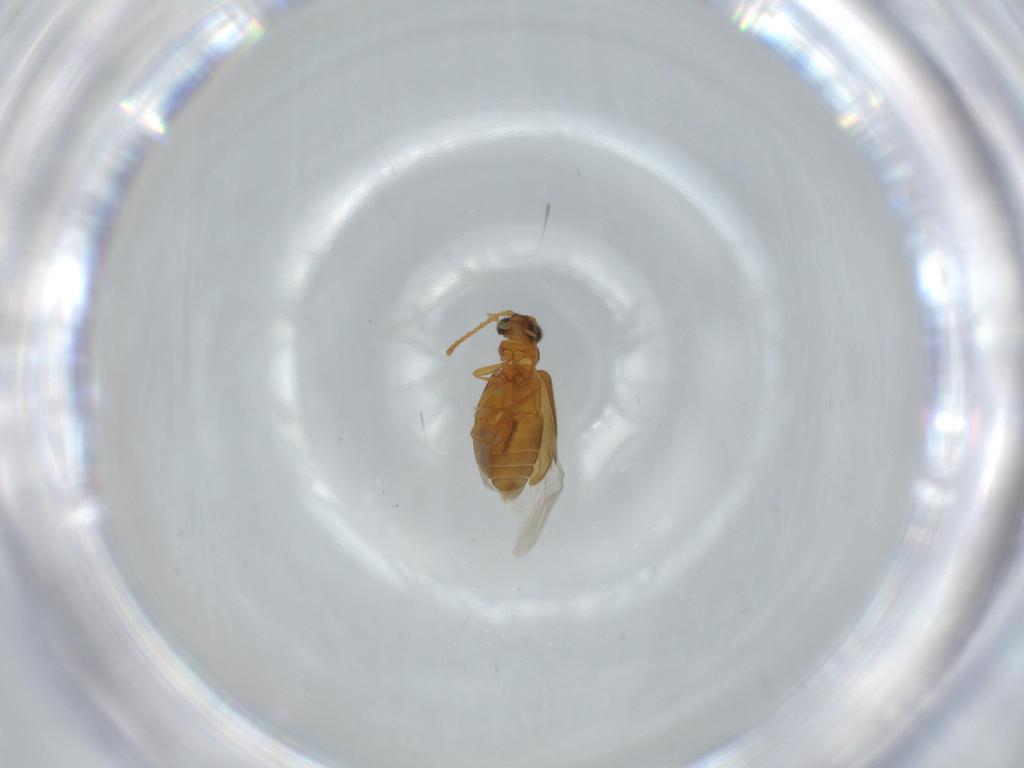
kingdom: Animalia
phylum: Arthropoda
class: Insecta
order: Coleoptera
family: Aderidae
